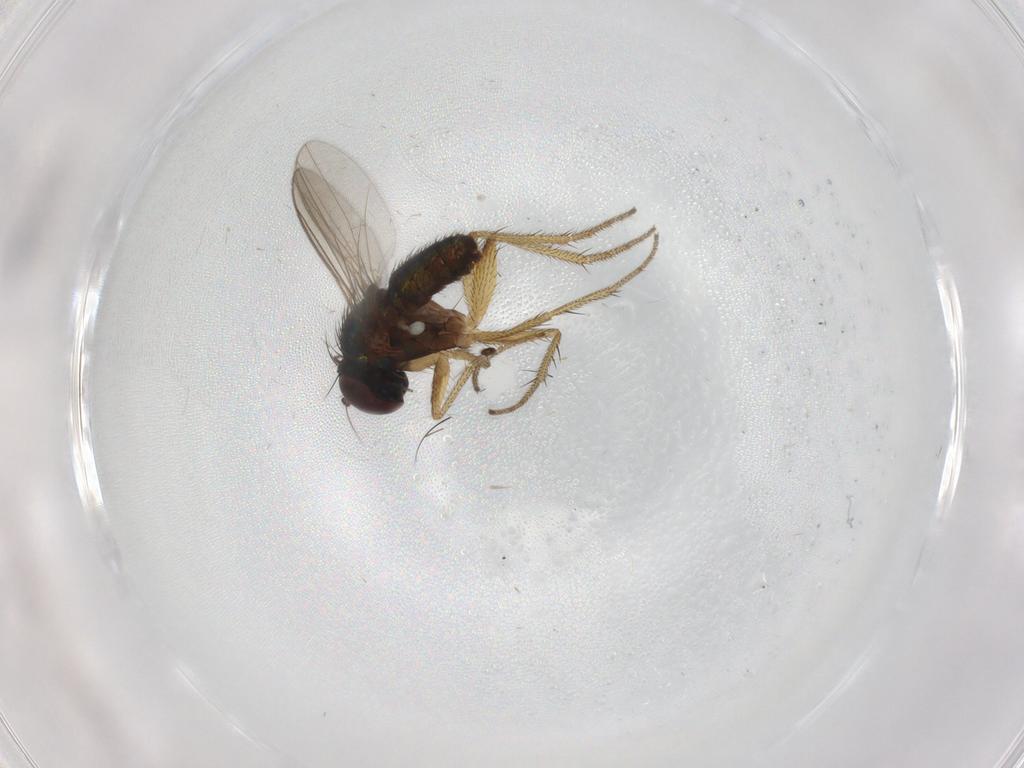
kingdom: Animalia
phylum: Arthropoda
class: Insecta
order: Diptera
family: Dolichopodidae
